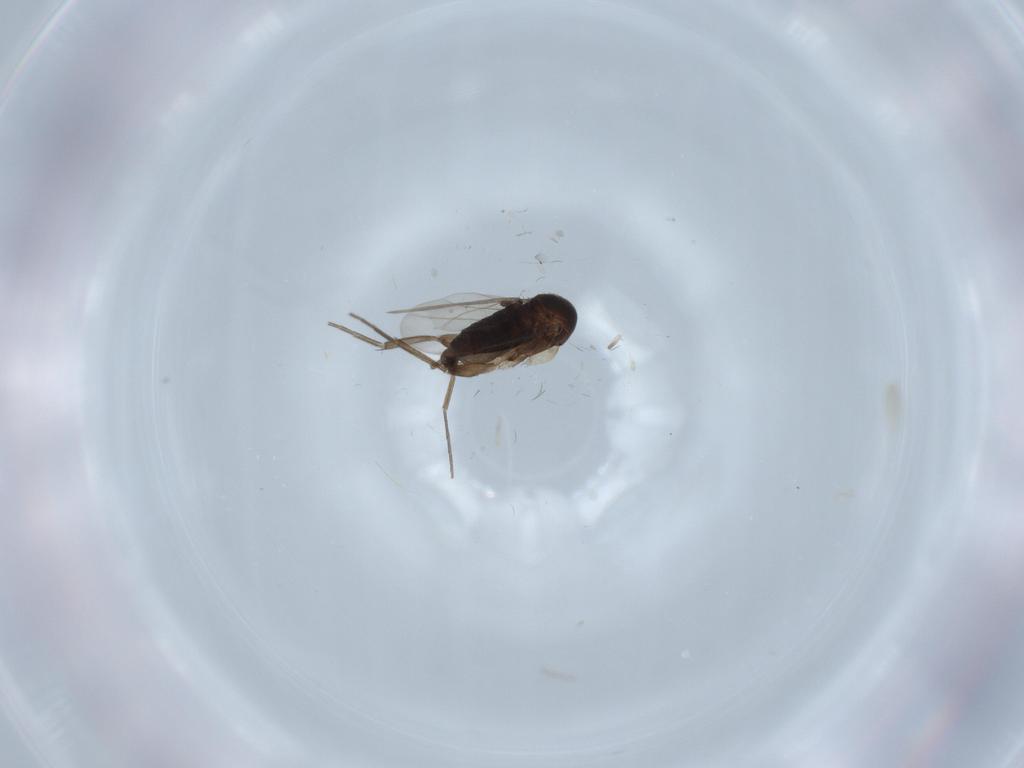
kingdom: Animalia
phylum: Arthropoda
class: Insecta
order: Diptera
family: Phoridae
